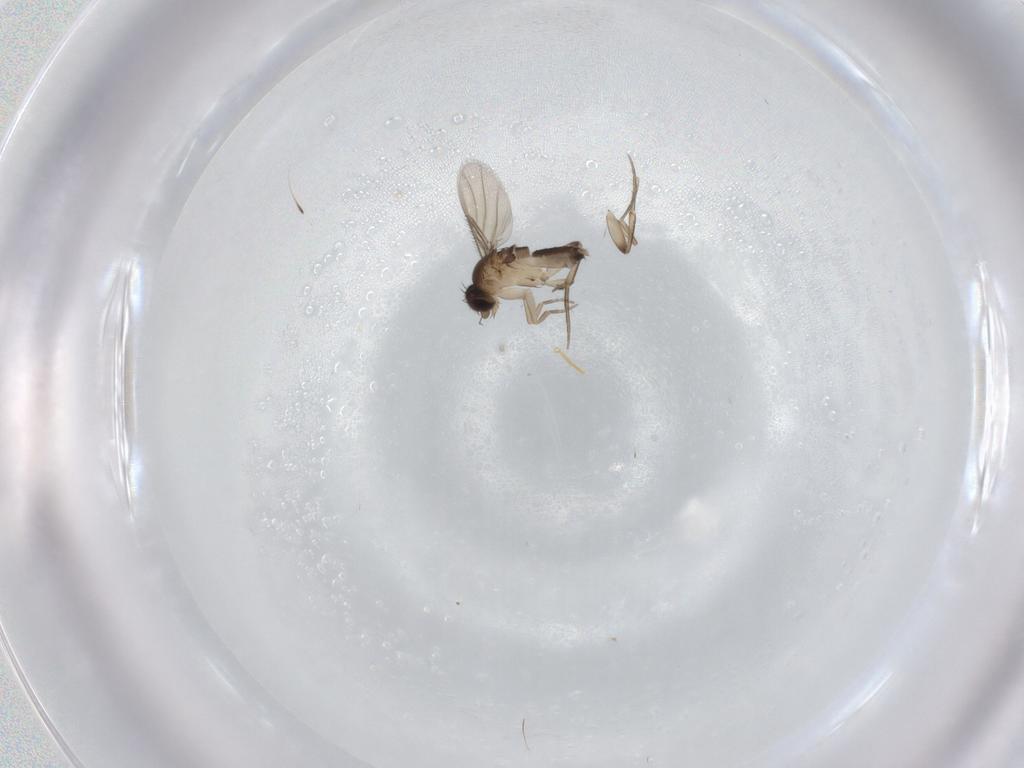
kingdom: Animalia
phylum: Arthropoda
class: Insecta
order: Diptera
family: Phoridae
